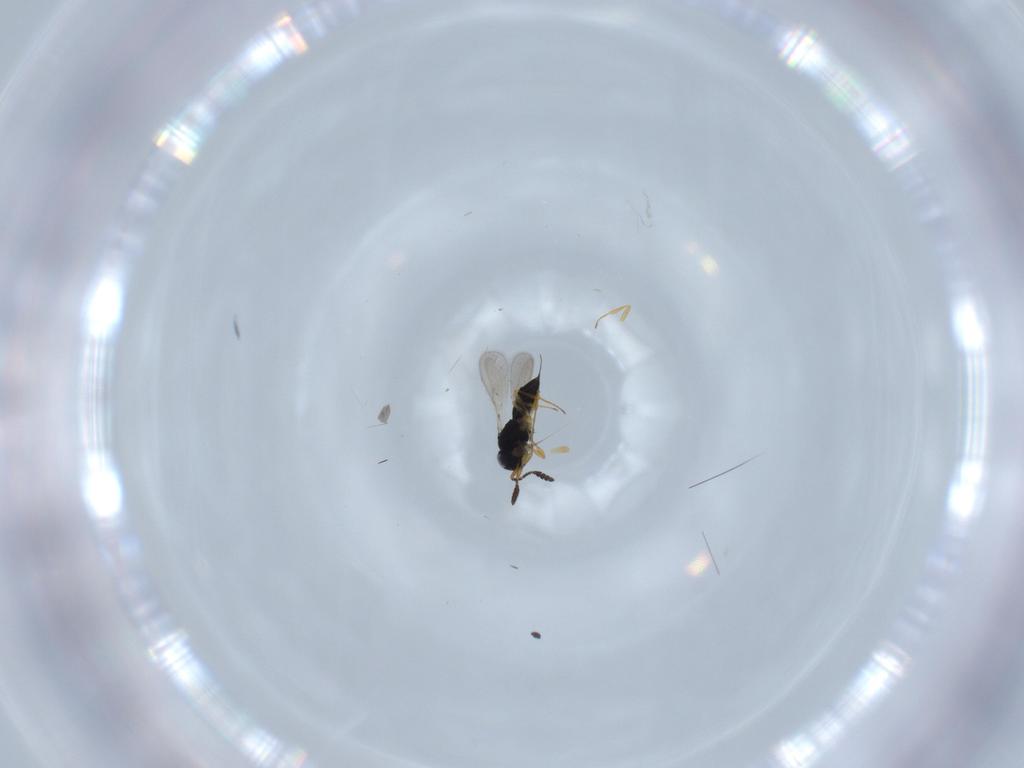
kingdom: Animalia
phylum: Arthropoda
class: Insecta
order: Hymenoptera
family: Scelionidae
